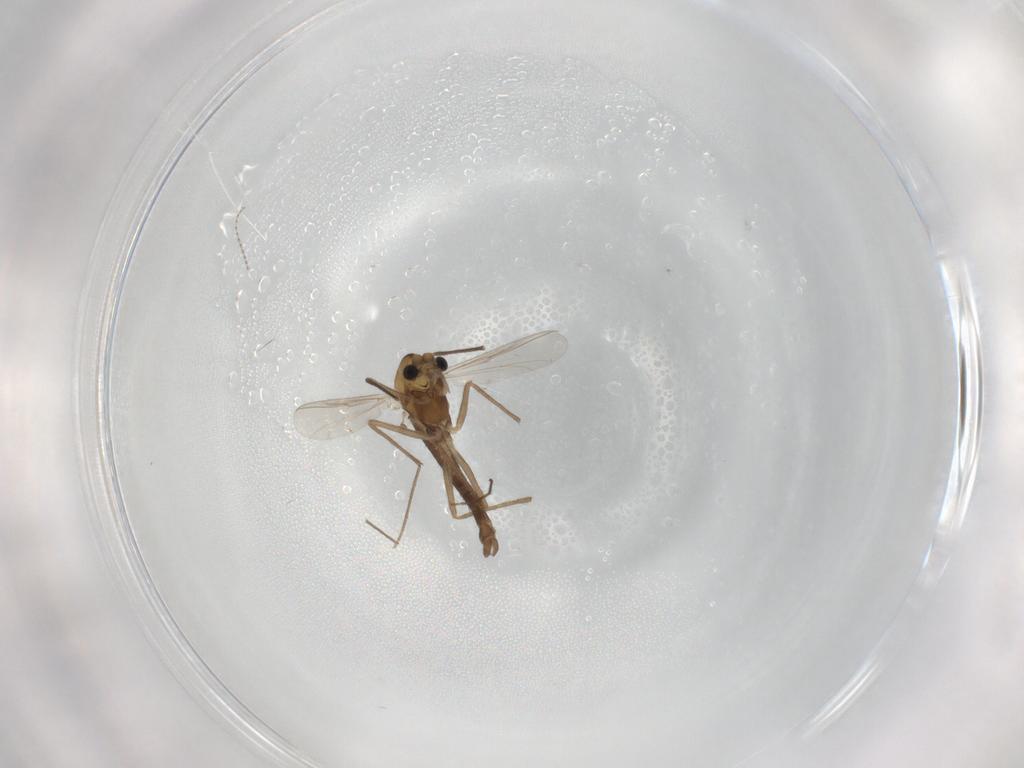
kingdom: Animalia
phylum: Arthropoda
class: Insecta
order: Diptera
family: Chironomidae
